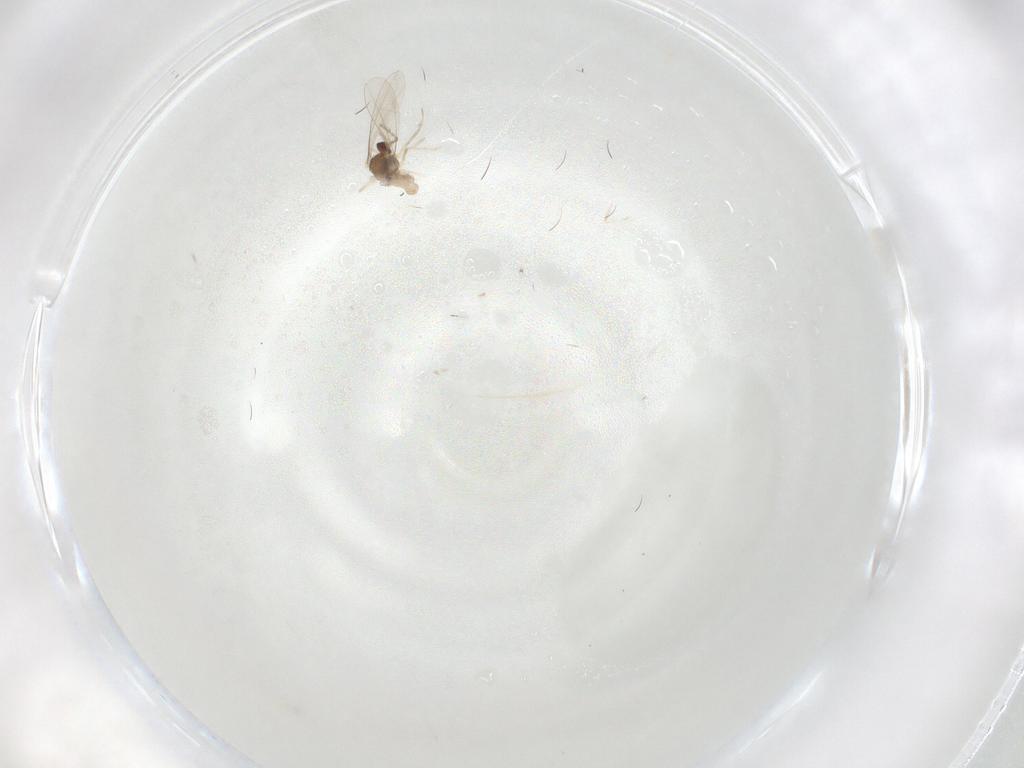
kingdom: Animalia
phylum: Arthropoda
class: Insecta
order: Diptera
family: Cecidomyiidae
